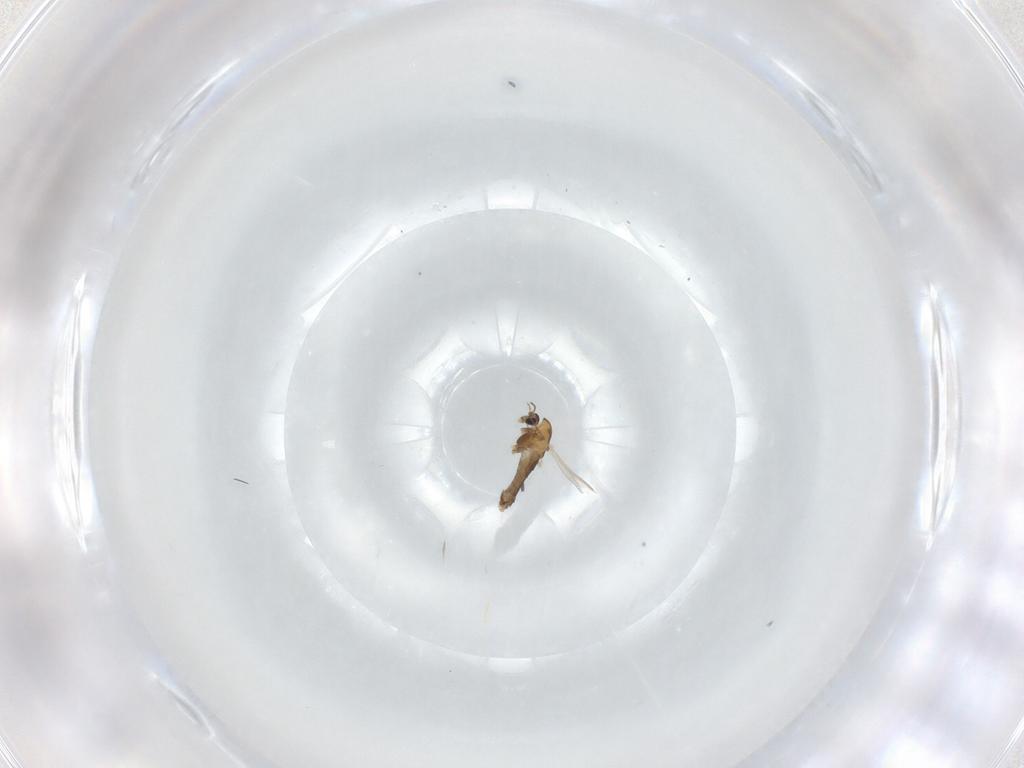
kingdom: Animalia
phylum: Arthropoda
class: Insecta
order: Diptera
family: Chironomidae
